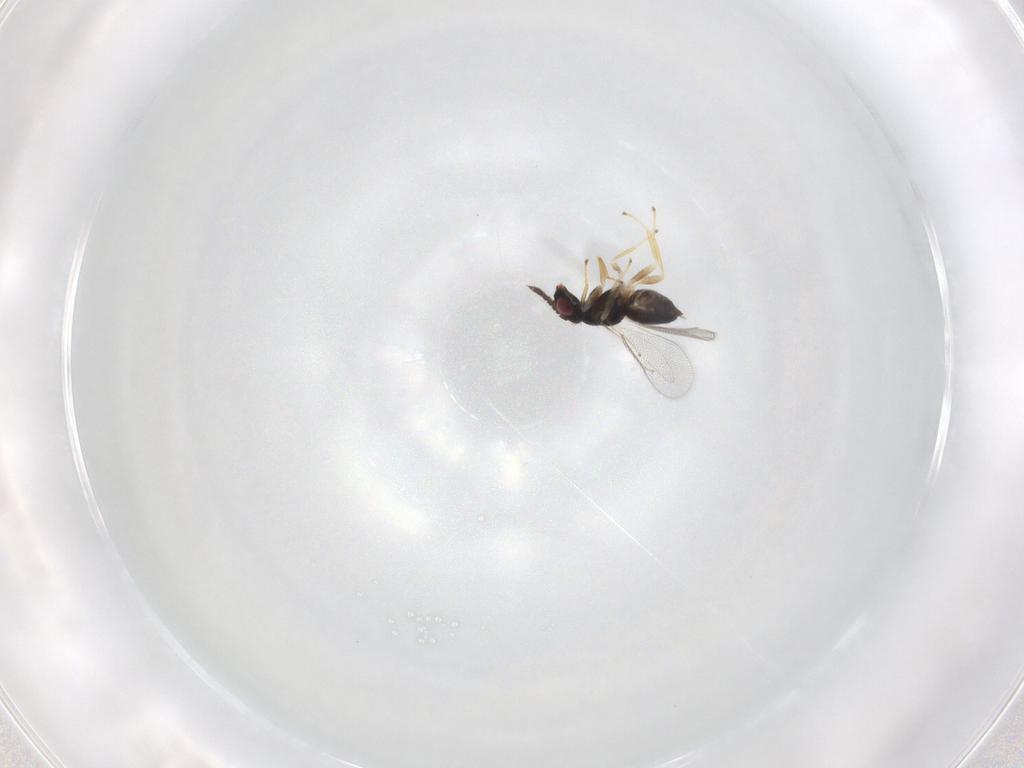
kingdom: Animalia
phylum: Arthropoda
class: Insecta
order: Hymenoptera
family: Eulophidae
